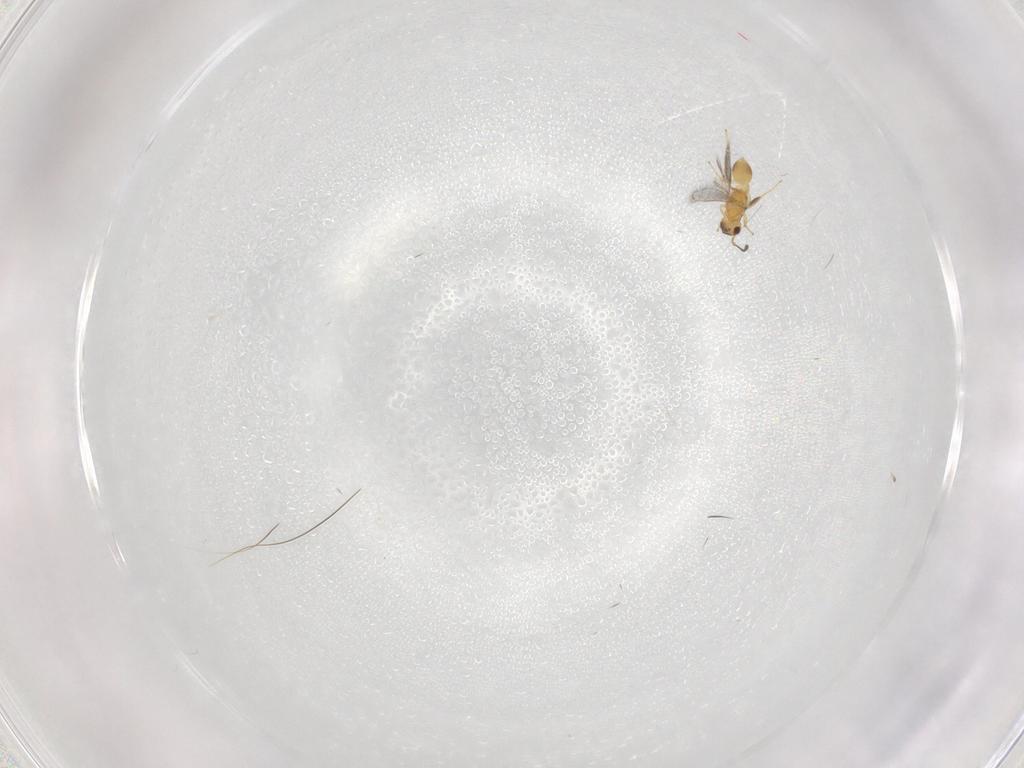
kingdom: Animalia
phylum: Arthropoda
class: Insecta
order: Hymenoptera
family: Mymaridae
